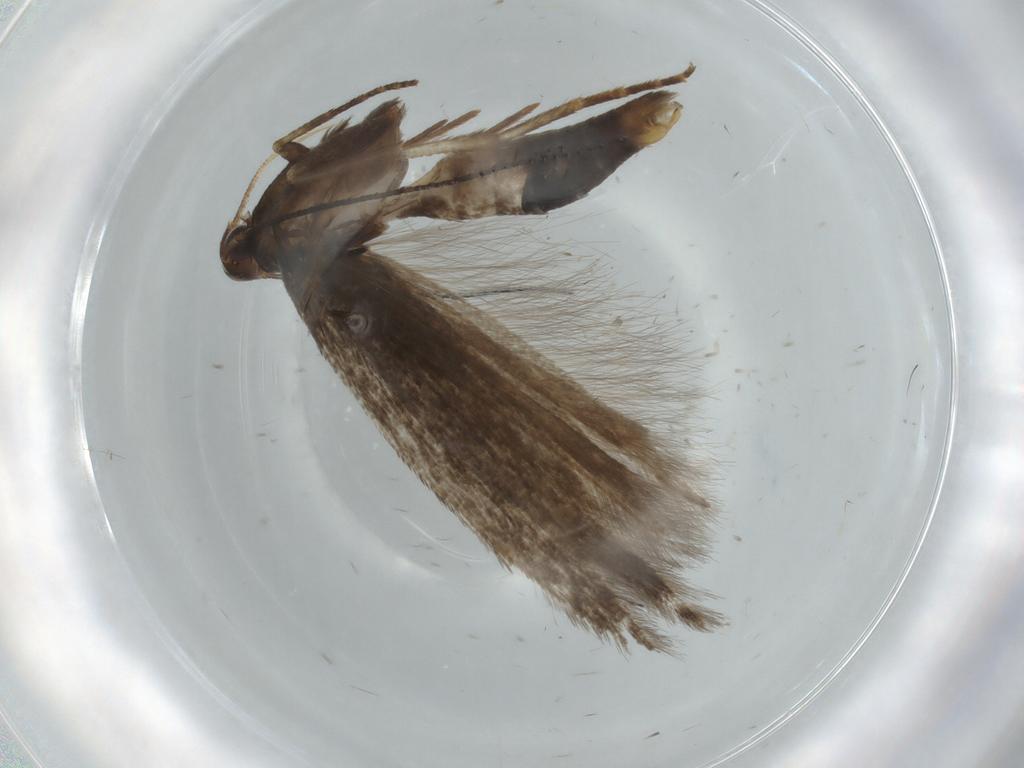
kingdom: Animalia
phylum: Arthropoda
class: Insecta
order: Lepidoptera
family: Gelechiidae
